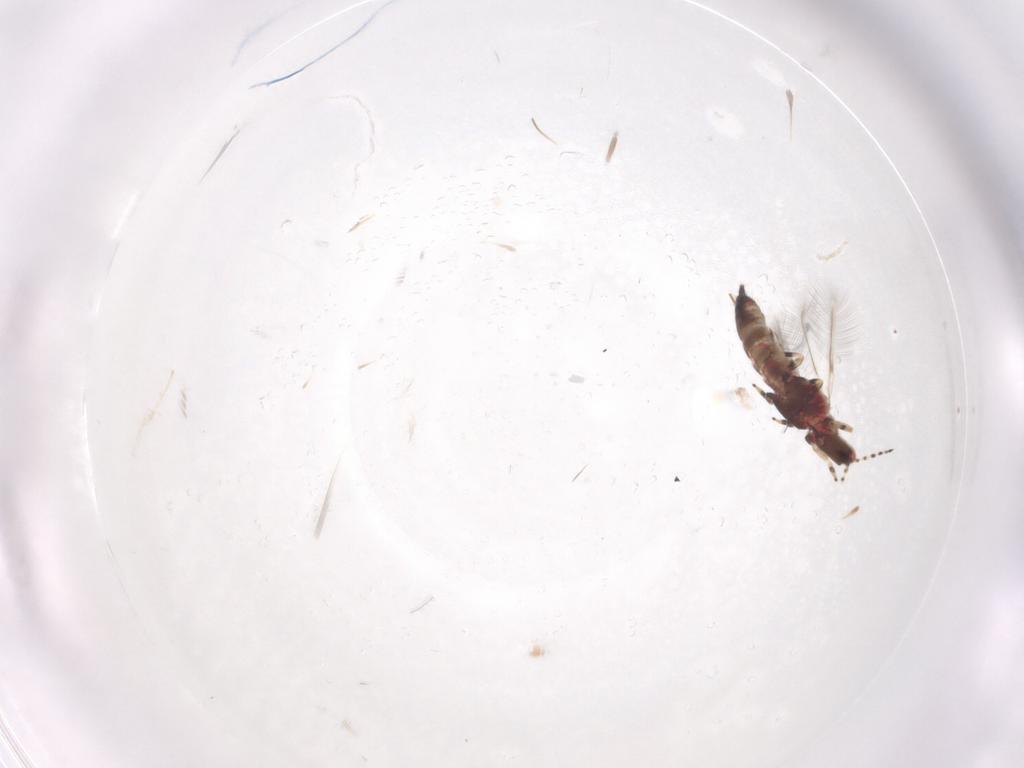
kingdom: Animalia
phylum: Arthropoda
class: Insecta
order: Thysanoptera
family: Phlaeothripidae
